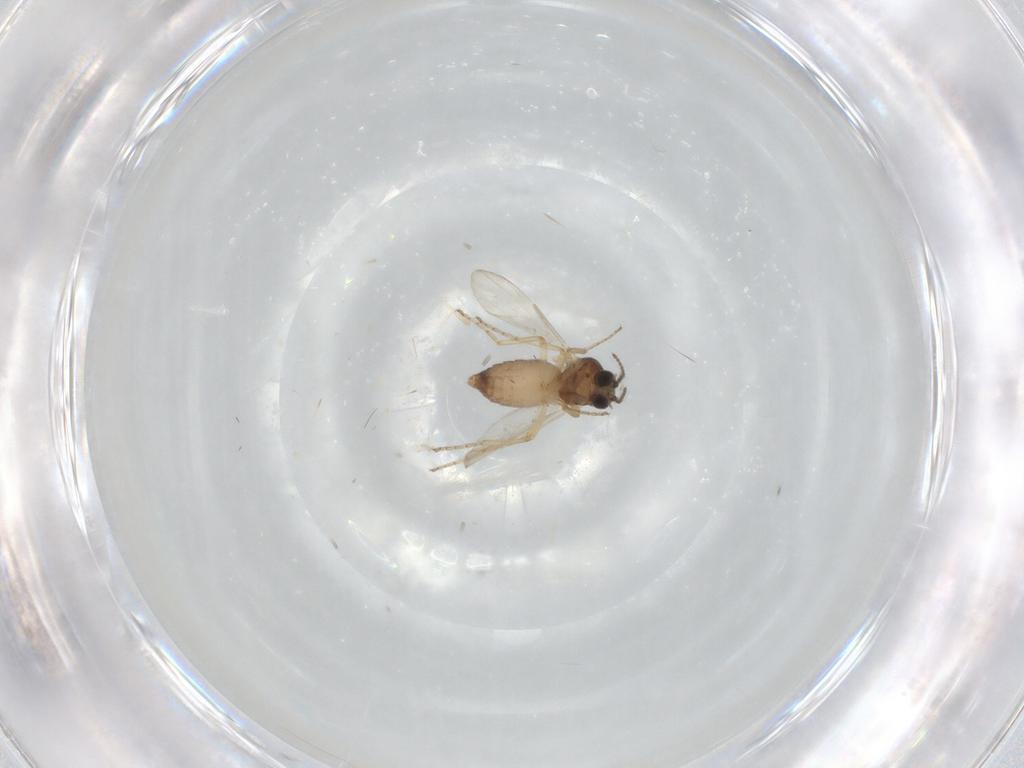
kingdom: Animalia
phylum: Arthropoda
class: Insecta
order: Diptera
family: Ceratopogonidae
